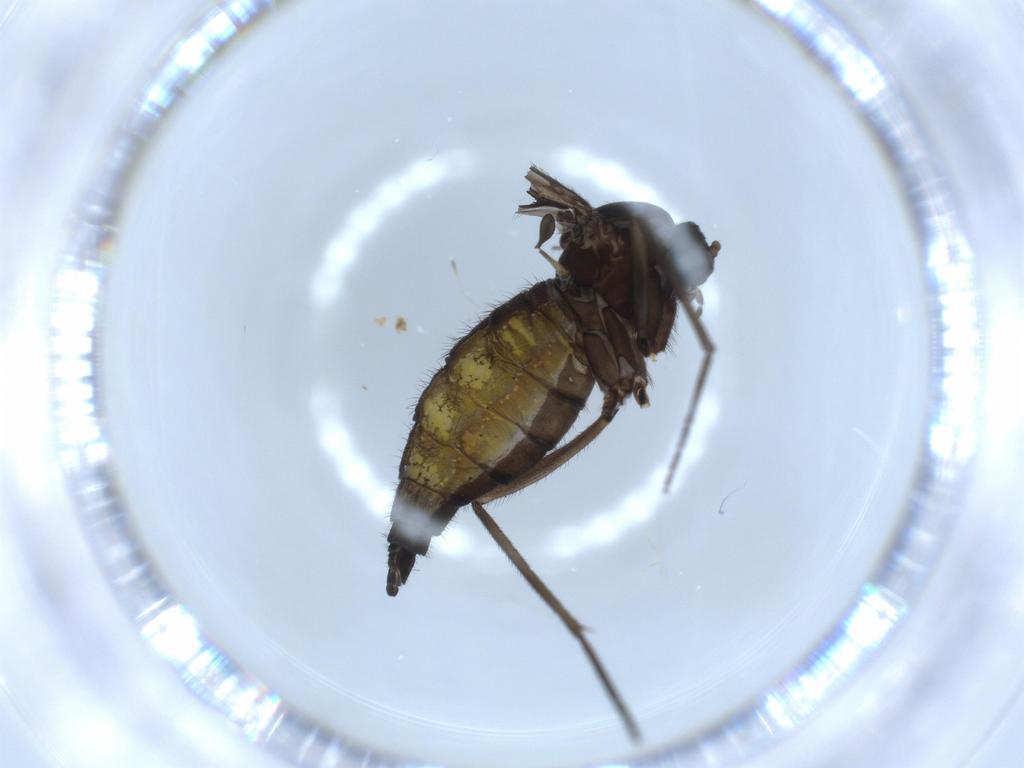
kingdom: Animalia
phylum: Arthropoda
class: Insecta
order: Diptera
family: Sciaridae
